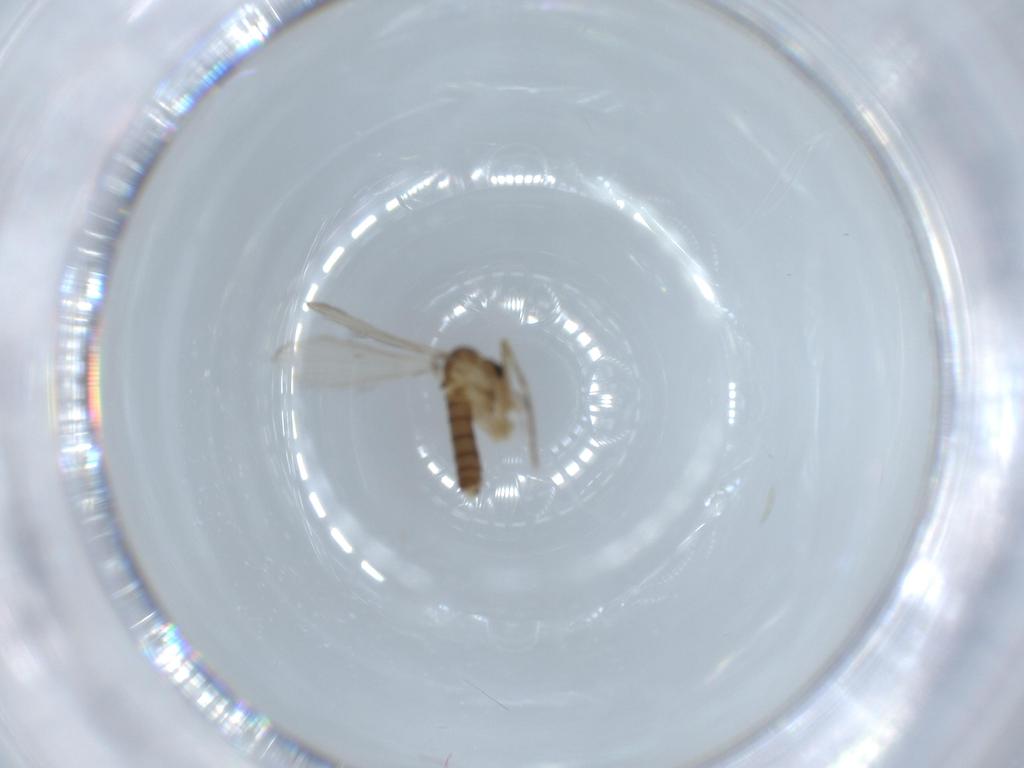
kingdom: Animalia
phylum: Arthropoda
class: Insecta
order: Diptera
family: Psychodidae
